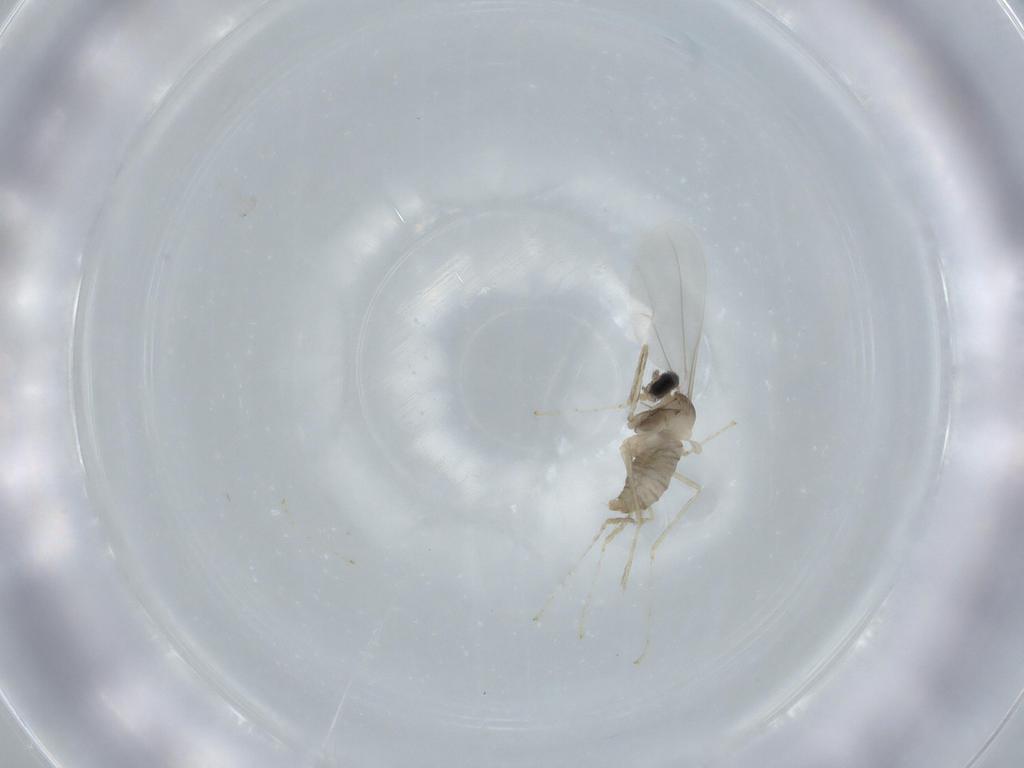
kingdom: Animalia
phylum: Arthropoda
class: Insecta
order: Diptera
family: Cecidomyiidae
